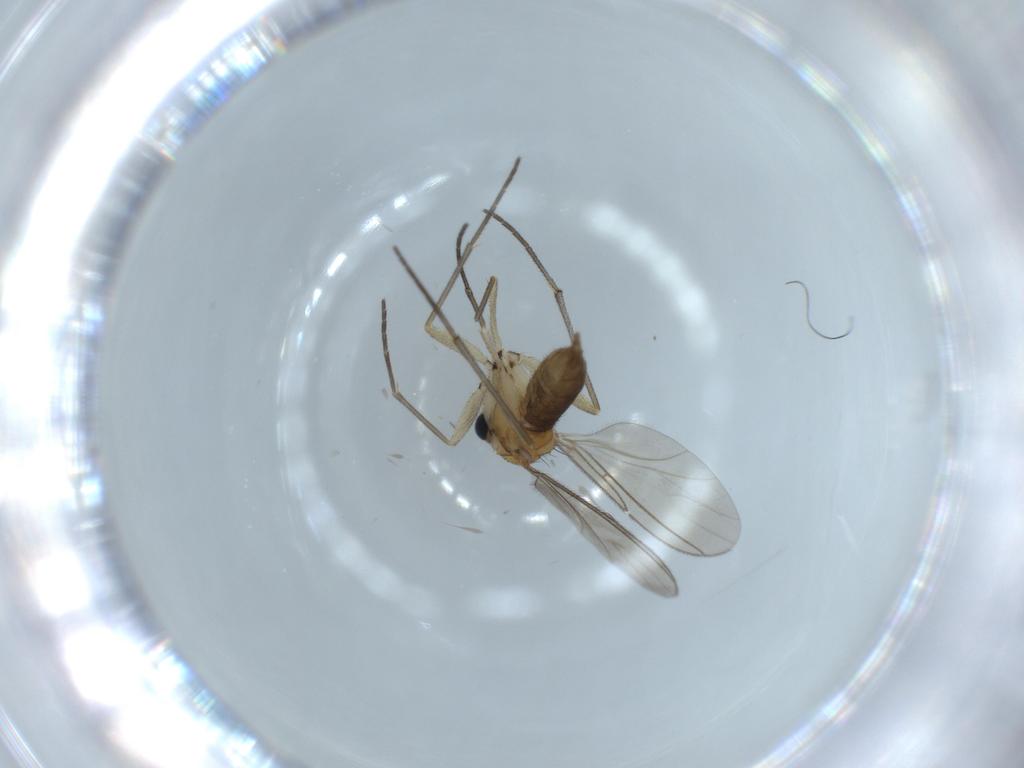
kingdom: Animalia
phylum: Arthropoda
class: Insecta
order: Diptera
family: Sciaridae
